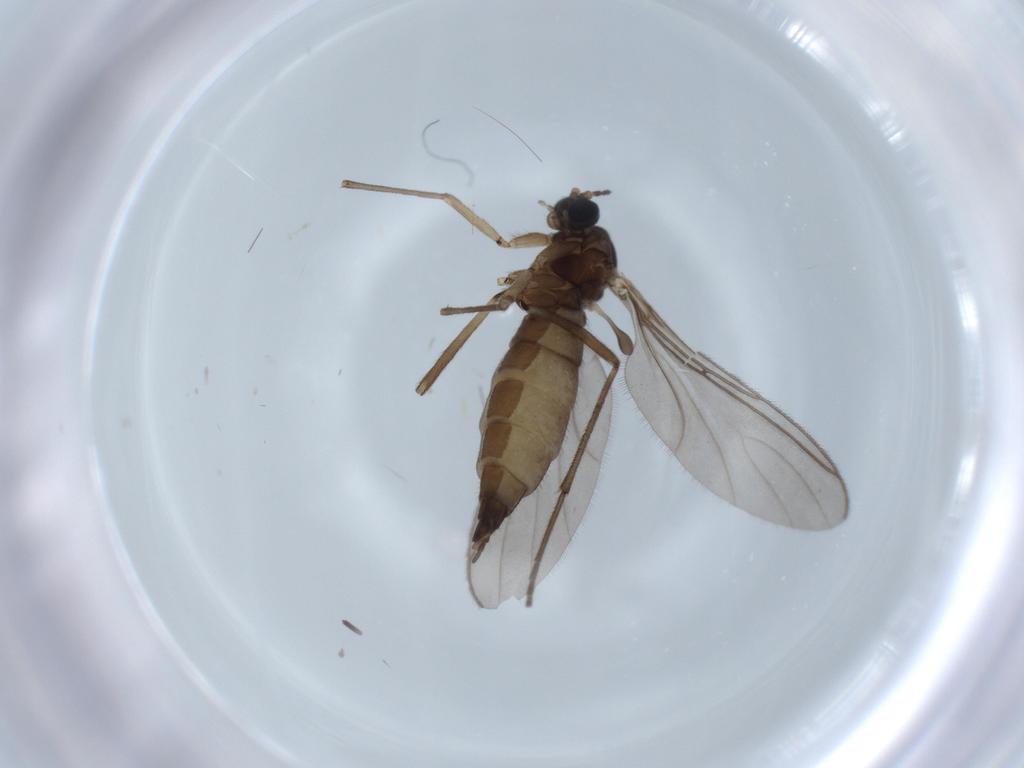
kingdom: Animalia
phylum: Arthropoda
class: Insecta
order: Diptera
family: Sciaridae
